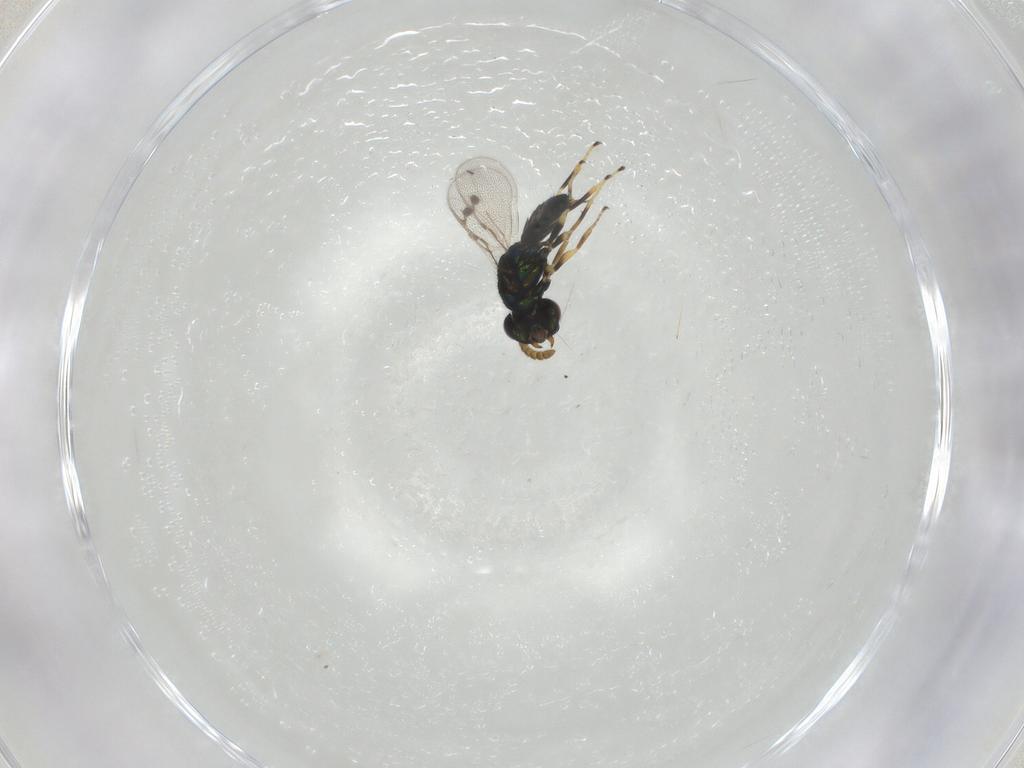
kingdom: Animalia
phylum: Arthropoda
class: Insecta
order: Hymenoptera
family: Pirenidae
